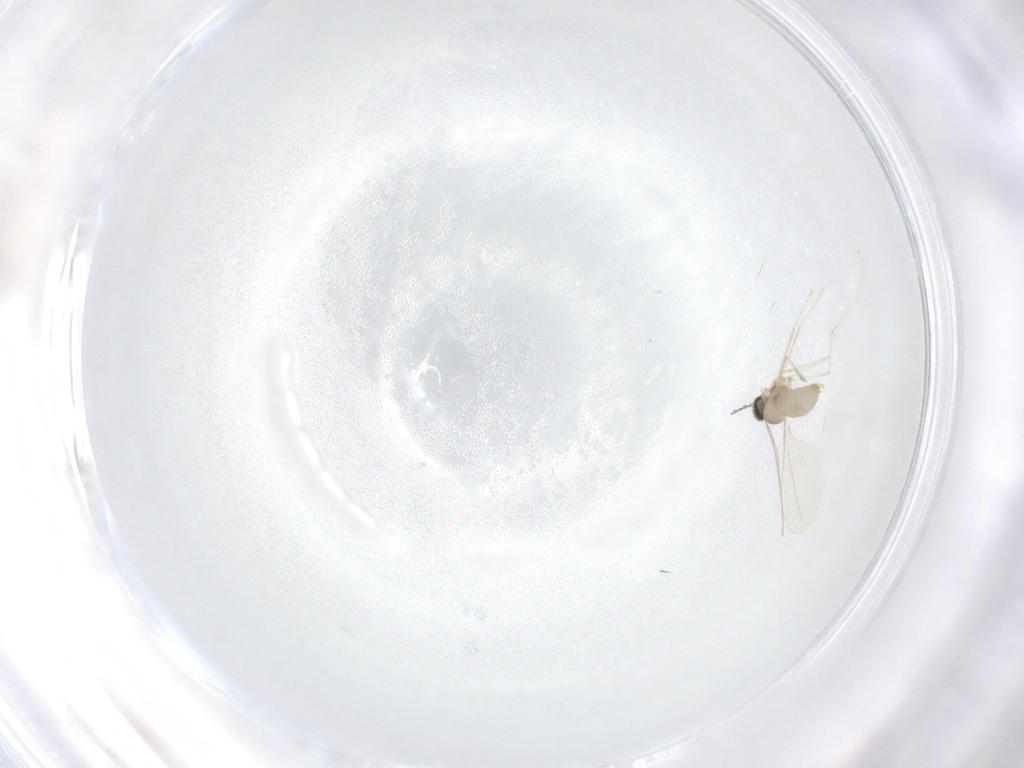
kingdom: Animalia
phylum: Arthropoda
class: Insecta
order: Diptera
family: Cecidomyiidae
